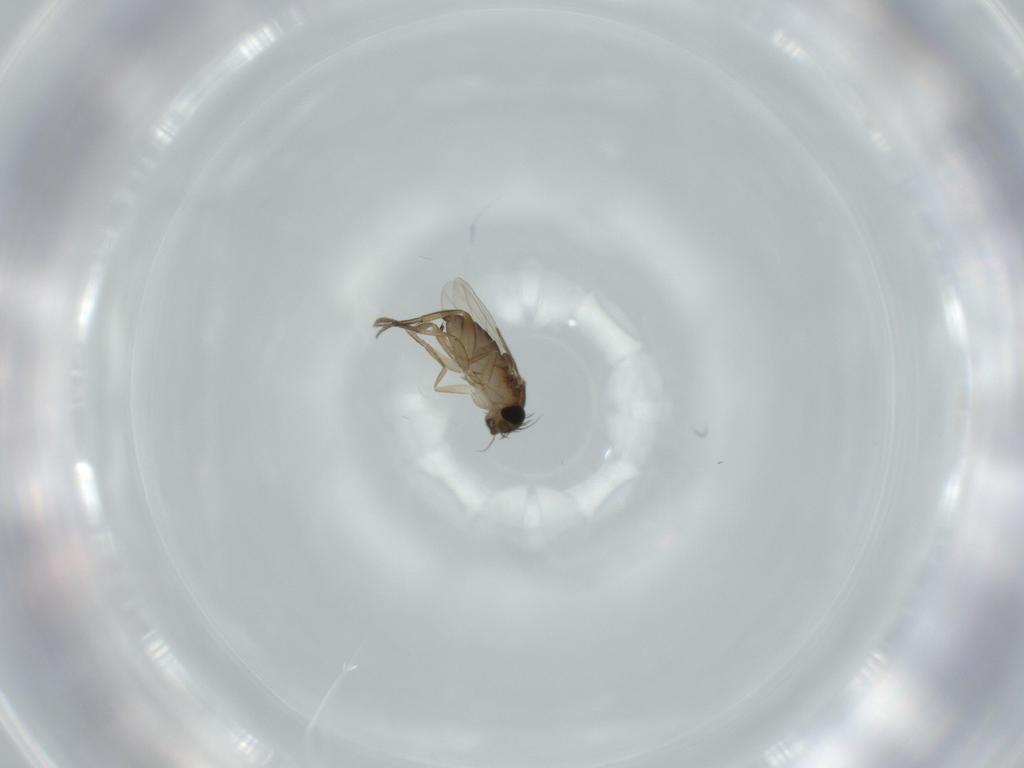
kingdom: Animalia
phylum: Arthropoda
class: Insecta
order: Diptera
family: Phoridae
